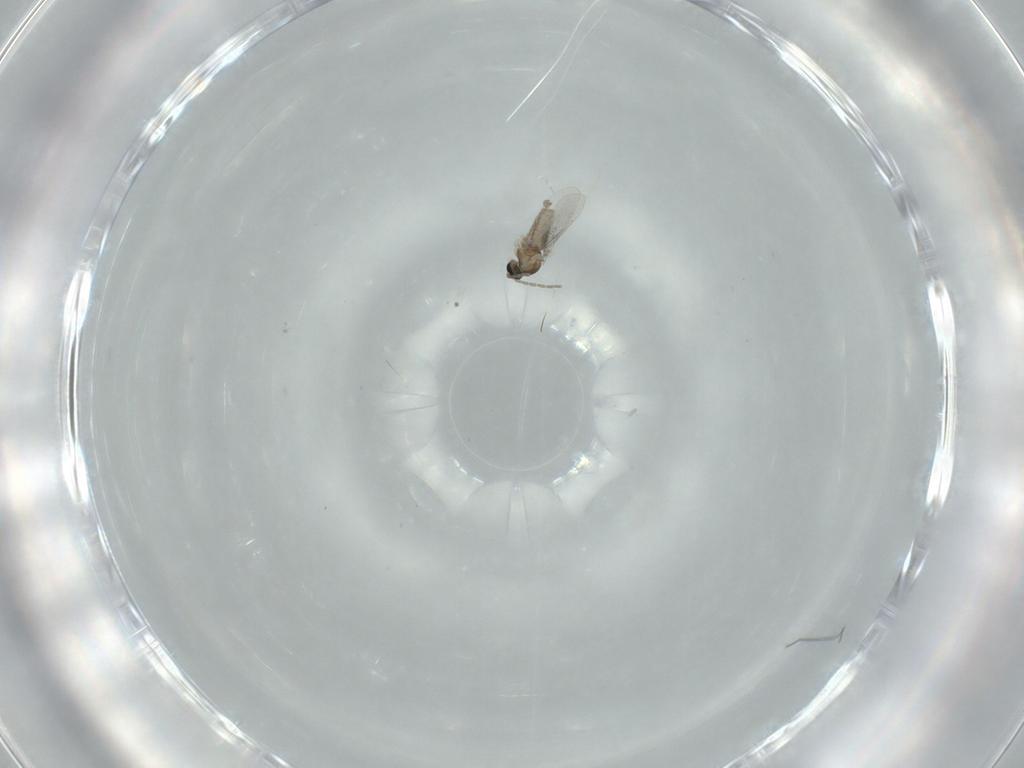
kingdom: Animalia
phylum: Arthropoda
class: Insecta
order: Diptera
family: Cecidomyiidae
